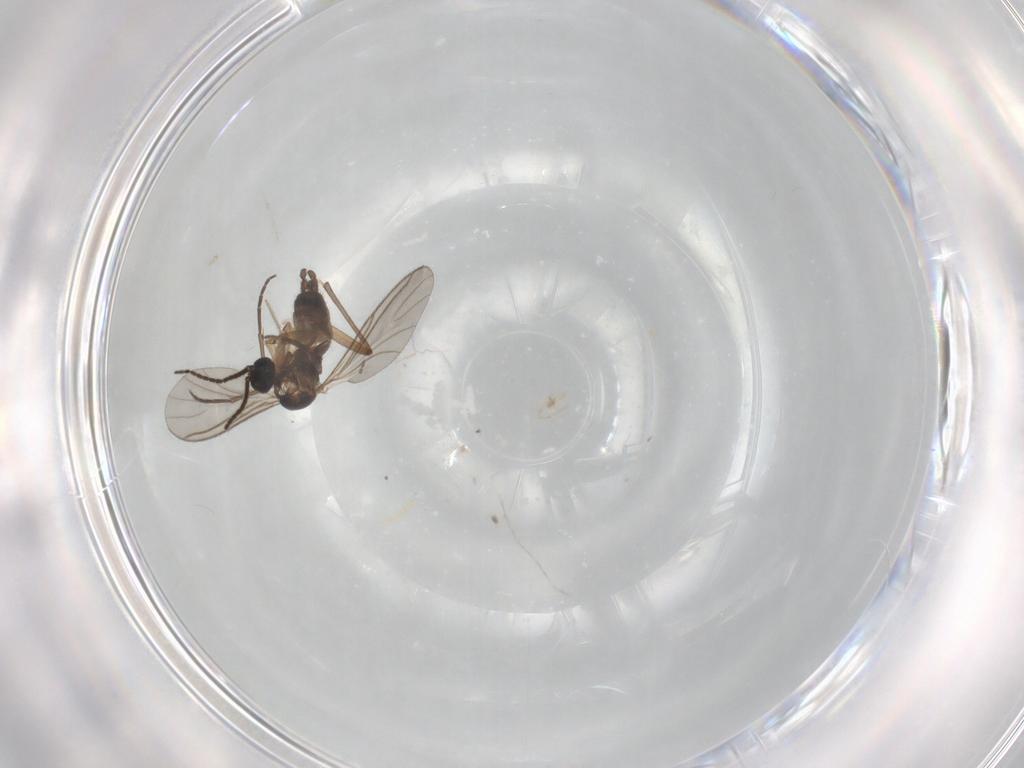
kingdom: Animalia
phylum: Arthropoda
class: Insecta
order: Diptera
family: Chironomidae
